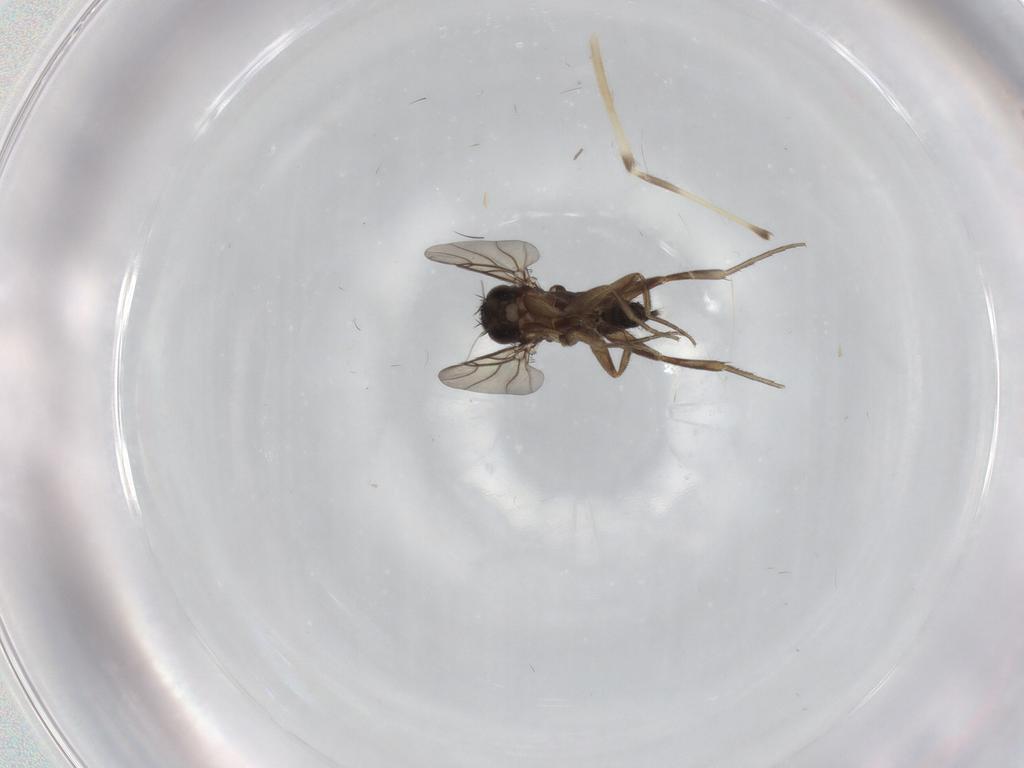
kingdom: Animalia
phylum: Arthropoda
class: Insecta
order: Diptera
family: Phoridae
